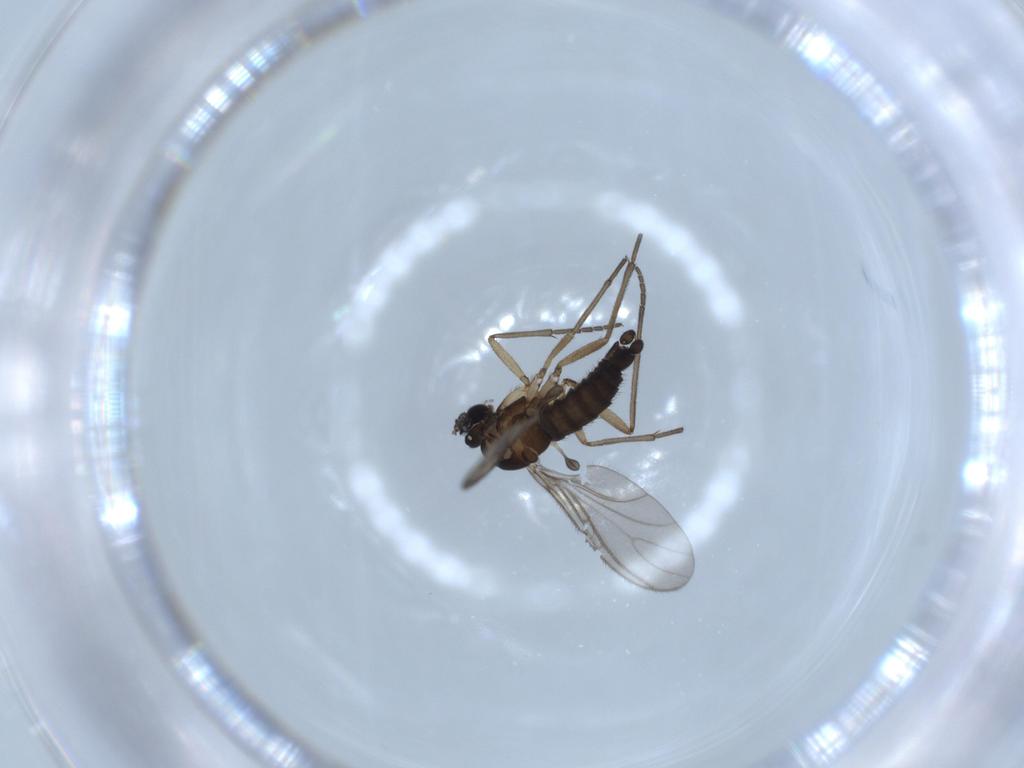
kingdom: Animalia
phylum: Arthropoda
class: Insecta
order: Diptera
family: Sciaridae
